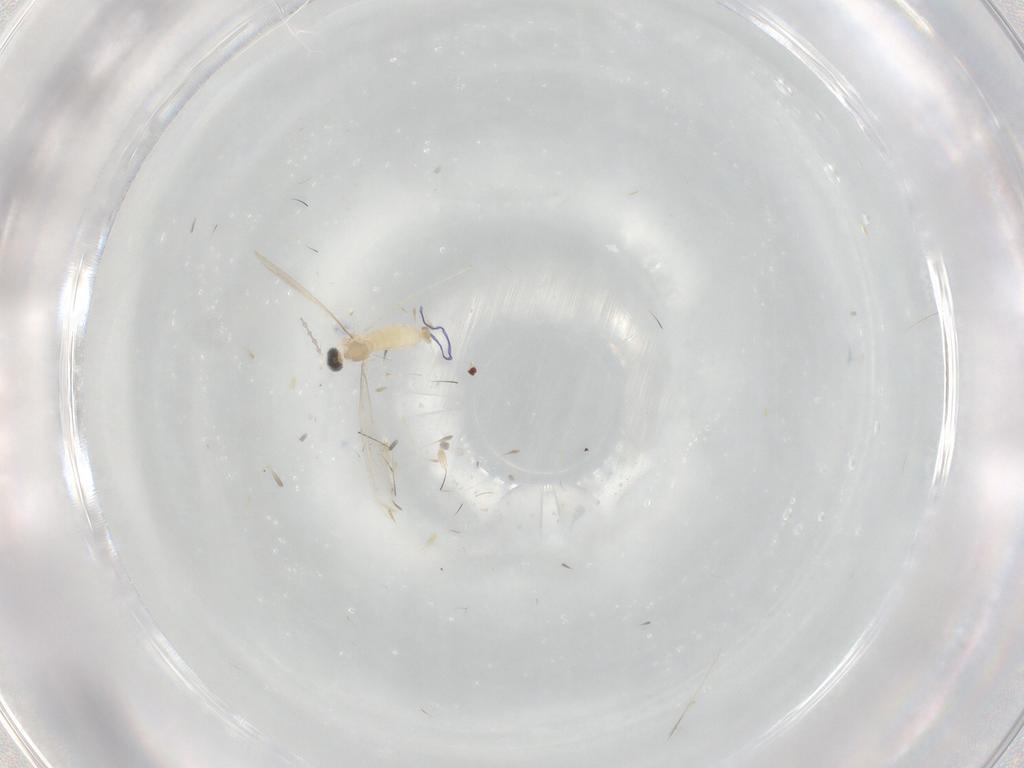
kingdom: Animalia
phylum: Arthropoda
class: Insecta
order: Diptera
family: Cecidomyiidae
